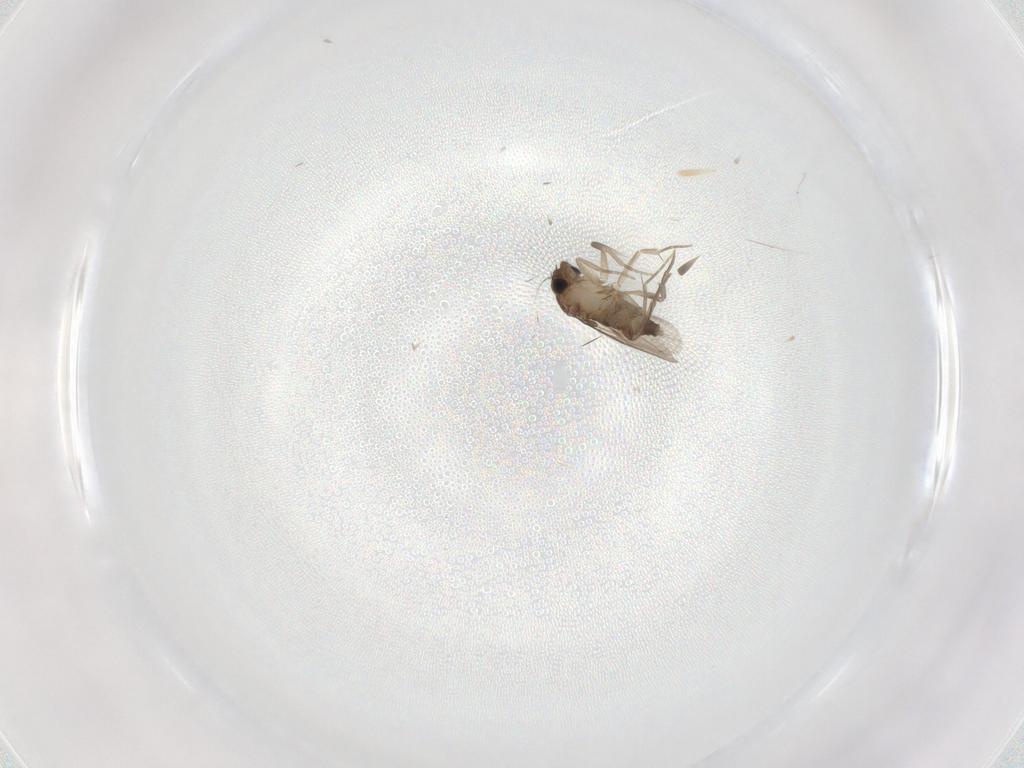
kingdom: Animalia
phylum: Arthropoda
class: Insecta
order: Diptera
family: Phoridae
